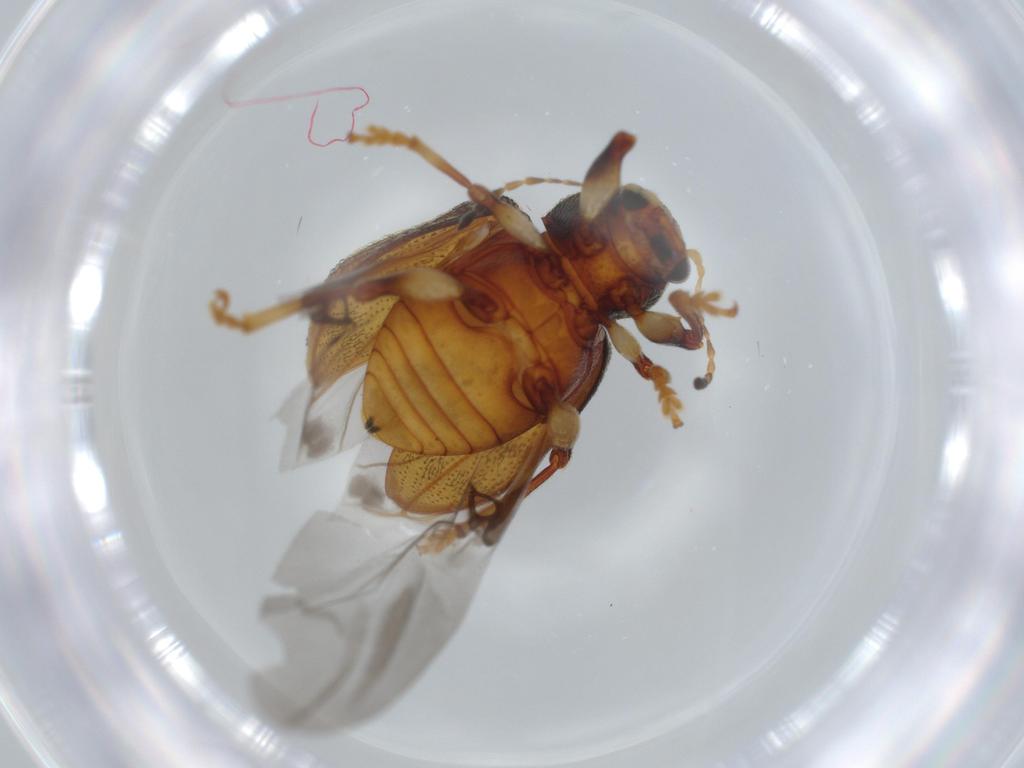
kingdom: Animalia
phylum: Arthropoda
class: Insecta
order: Coleoptera
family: Chrysomelidae
